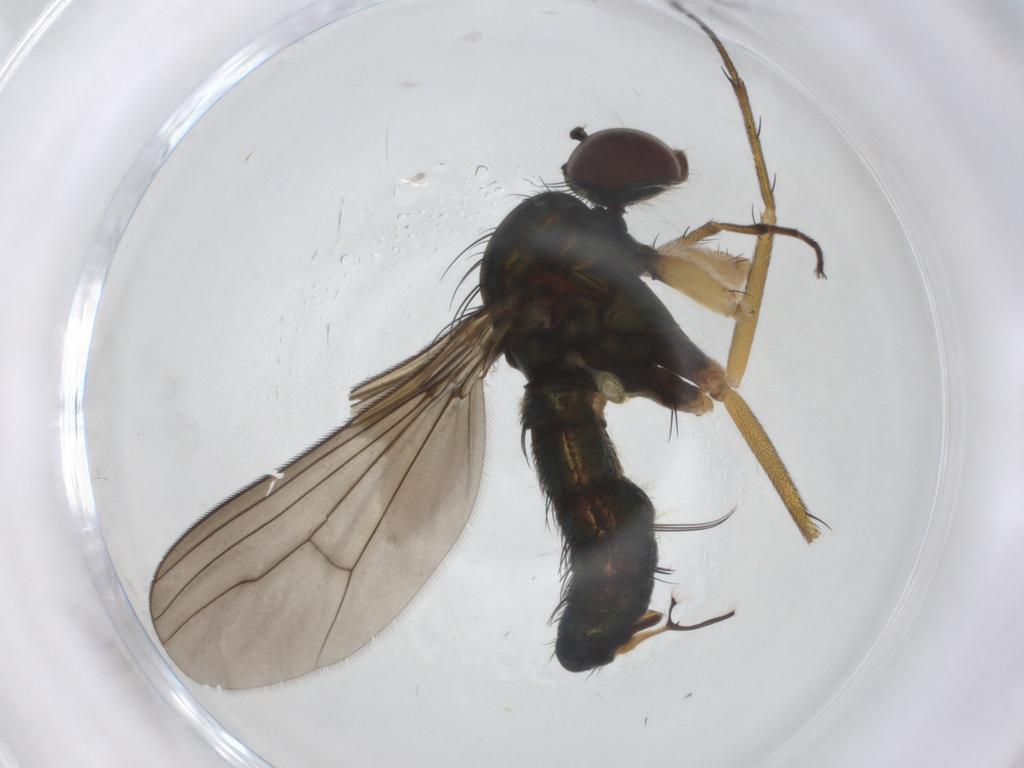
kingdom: Animalia
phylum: Arthropoda
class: Insecta
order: Diptera
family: Dolichopodidae
